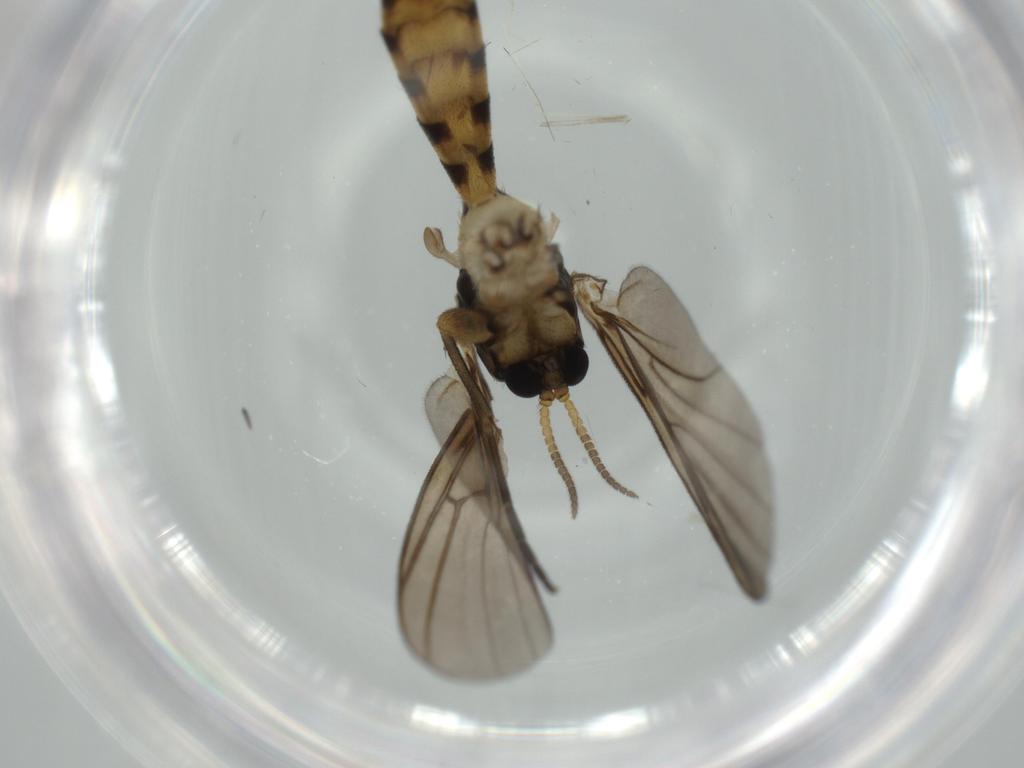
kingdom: Animalia
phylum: Arthropoda
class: Insecta
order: Diptera
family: Mycetophilidae
